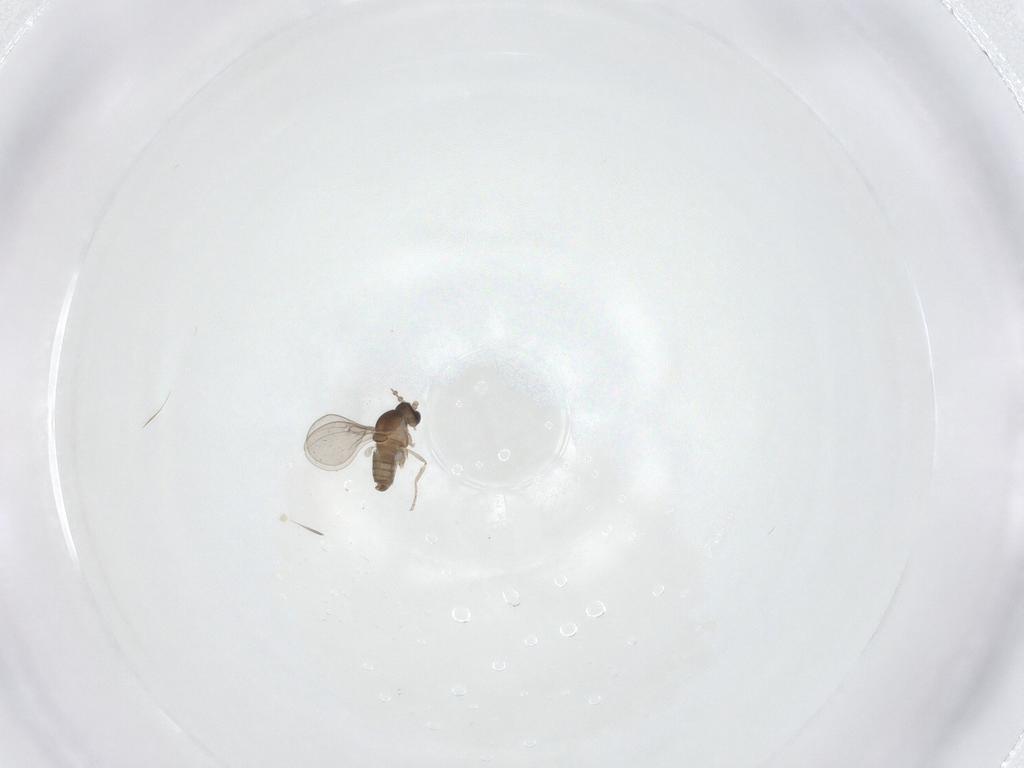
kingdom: Animalia
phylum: Arthropoda
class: Insecta
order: Diptera
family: Cecidomyiidae
